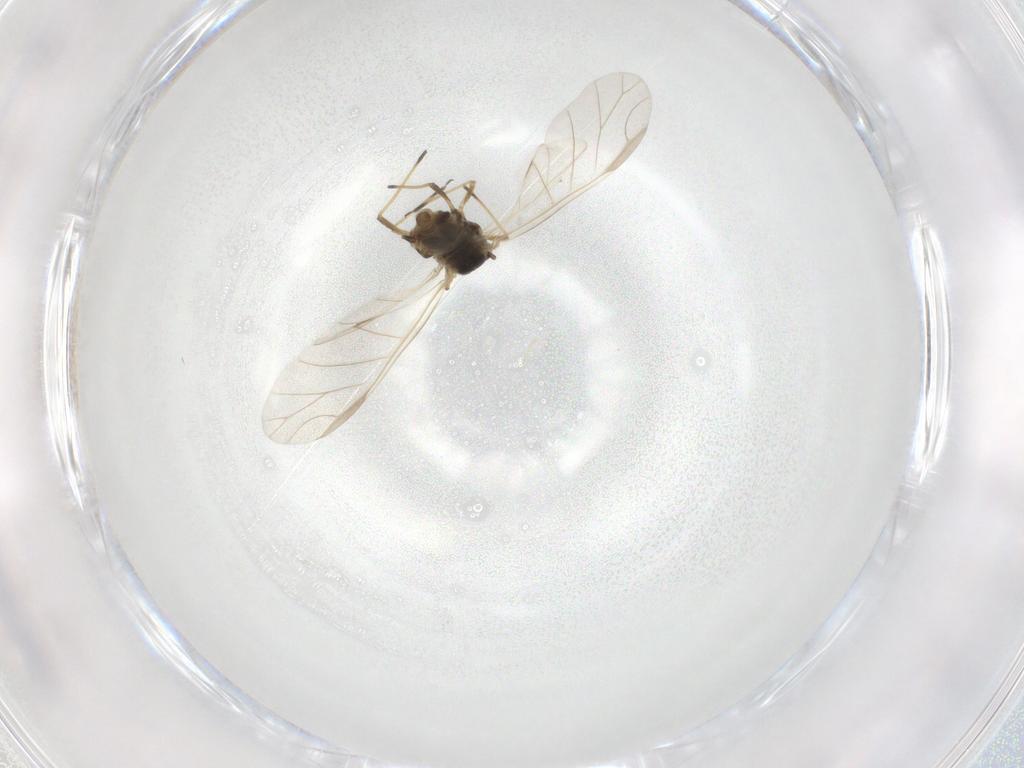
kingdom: Animalia
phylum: Arthropoda
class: Insecta
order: Hemiptera
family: Aphididae
